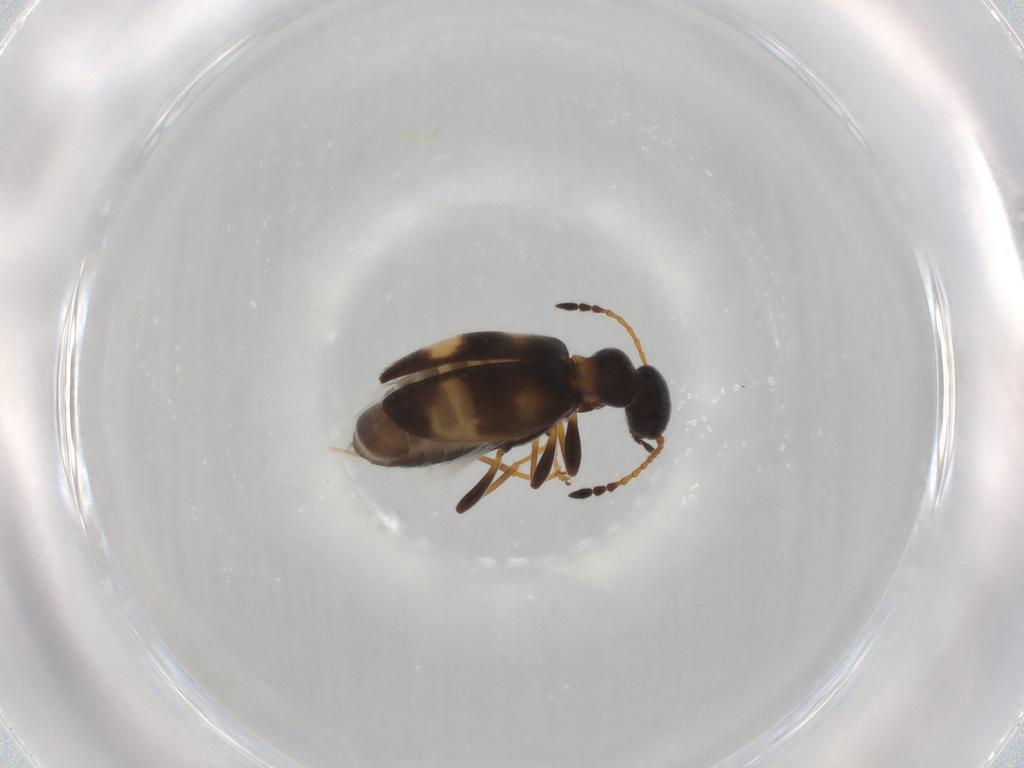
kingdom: Animalia
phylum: Arthropoda
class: Insecta
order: Coleoptera
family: Anthicidae
